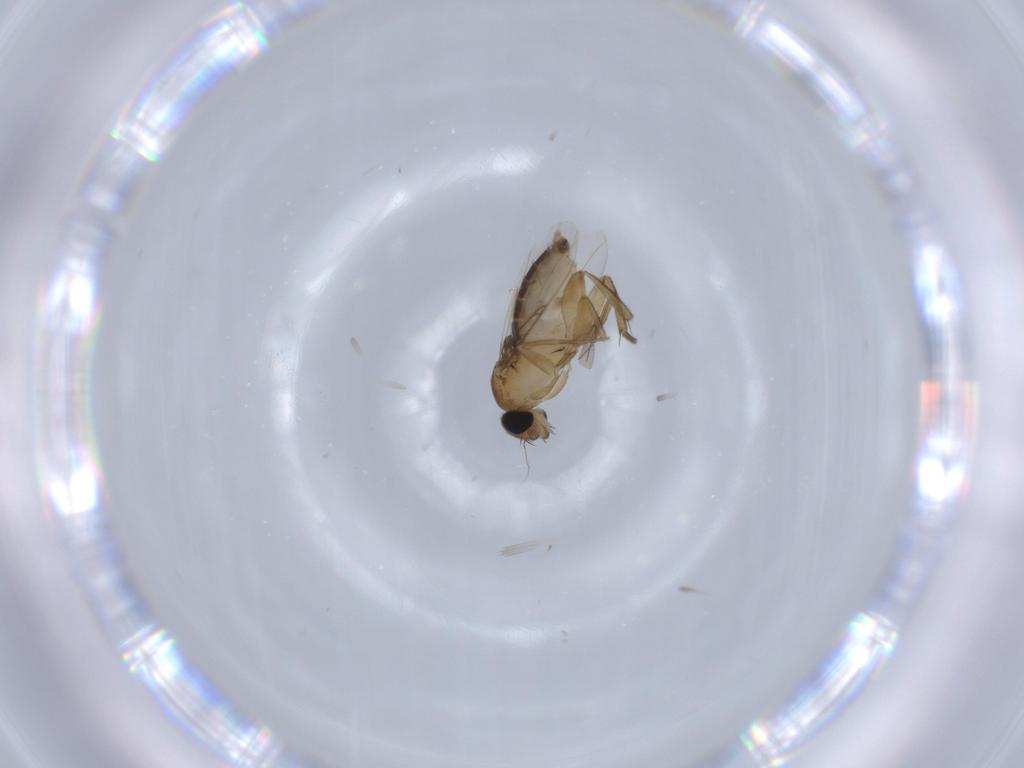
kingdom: Animalia
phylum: Arthropoda
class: Insecta
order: Diptera
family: Phoridae
